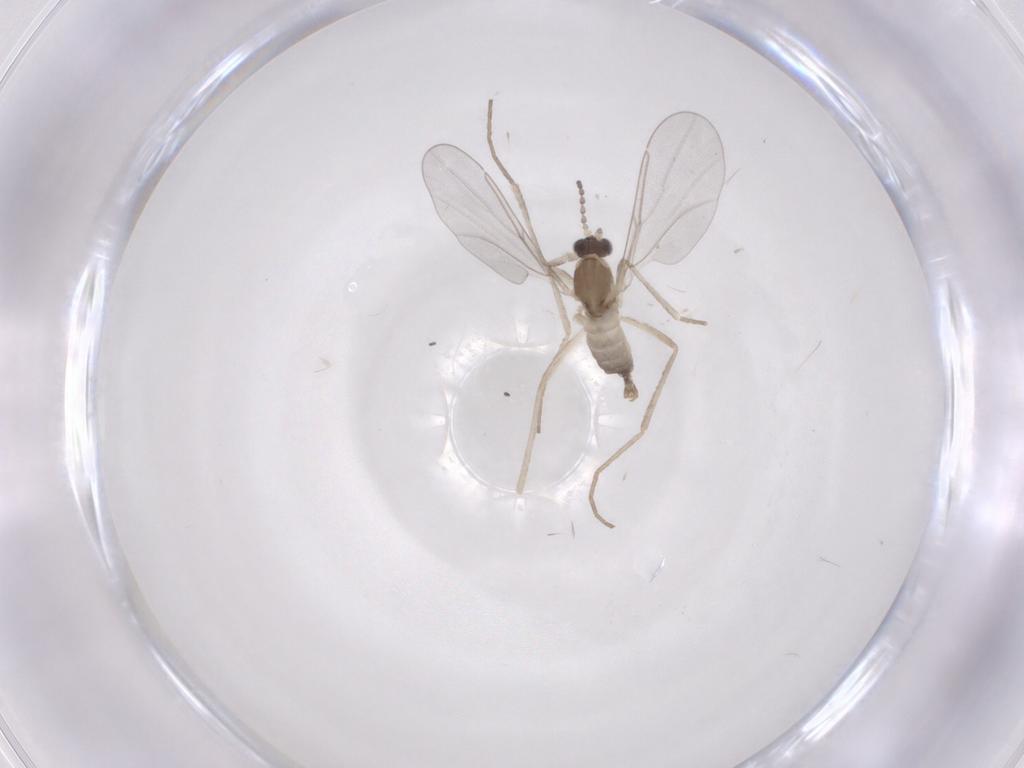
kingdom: Animalia
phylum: Arthropoda
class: Insecta
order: Diptera
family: Cecidomyiidae
